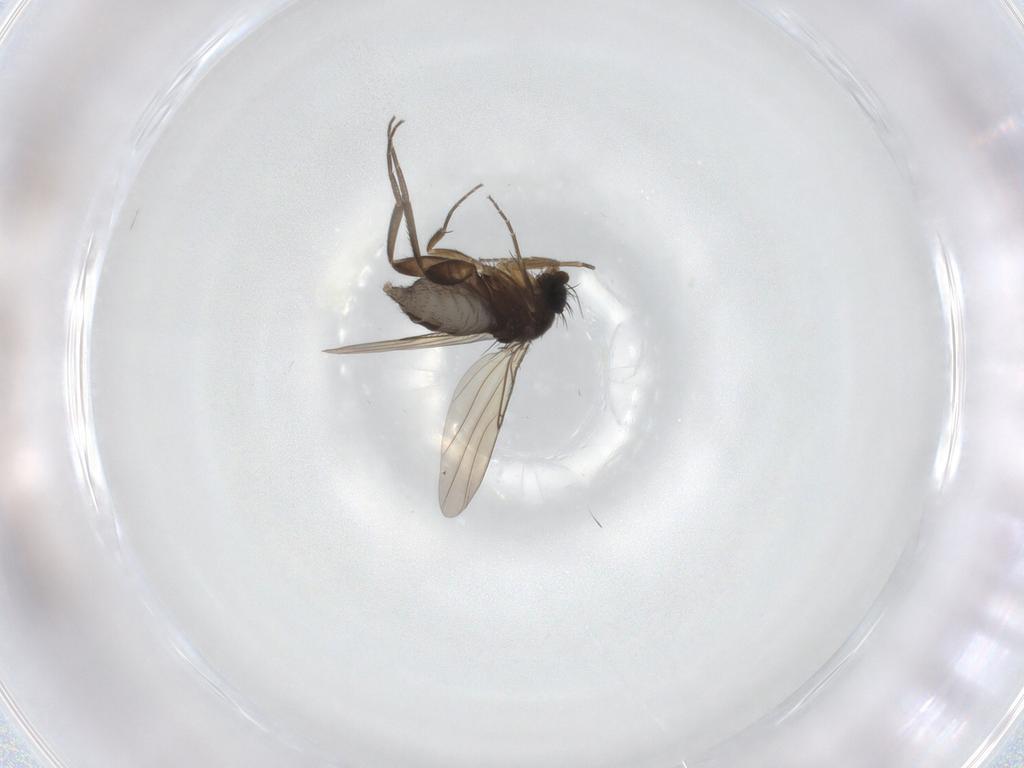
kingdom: Animalia
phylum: Arthropoda
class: Insecta
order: Diptera
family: Phoridae
